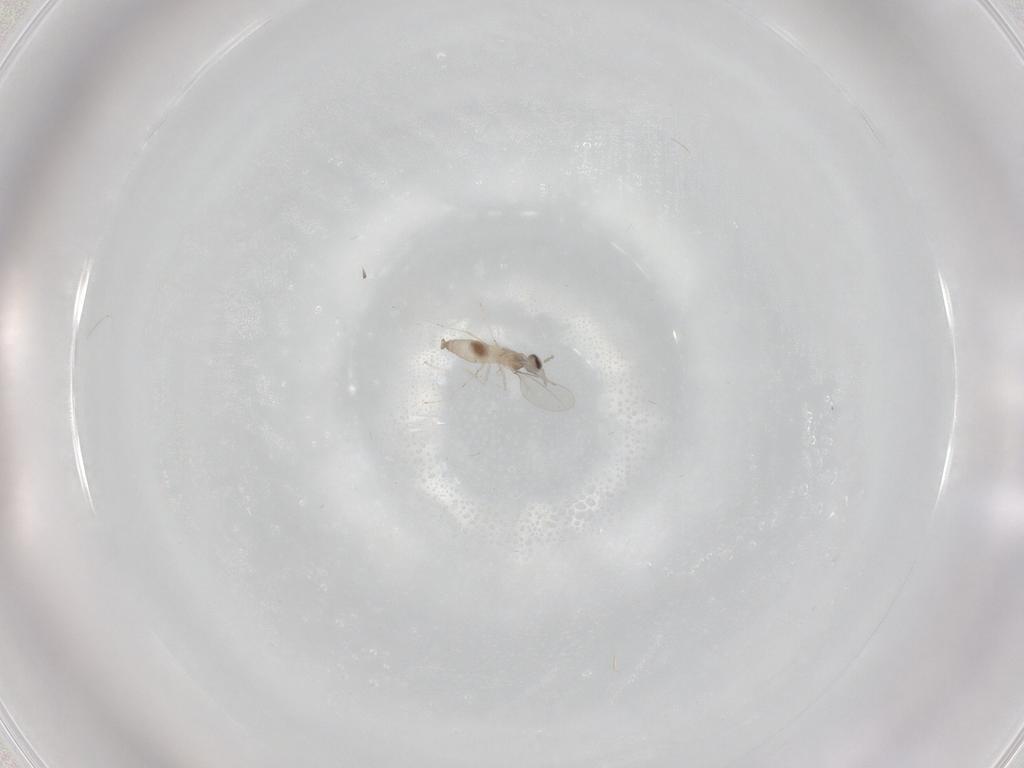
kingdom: Animalia
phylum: Arthropoda
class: Insecta
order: Diptera
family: Cecidomyiidae
